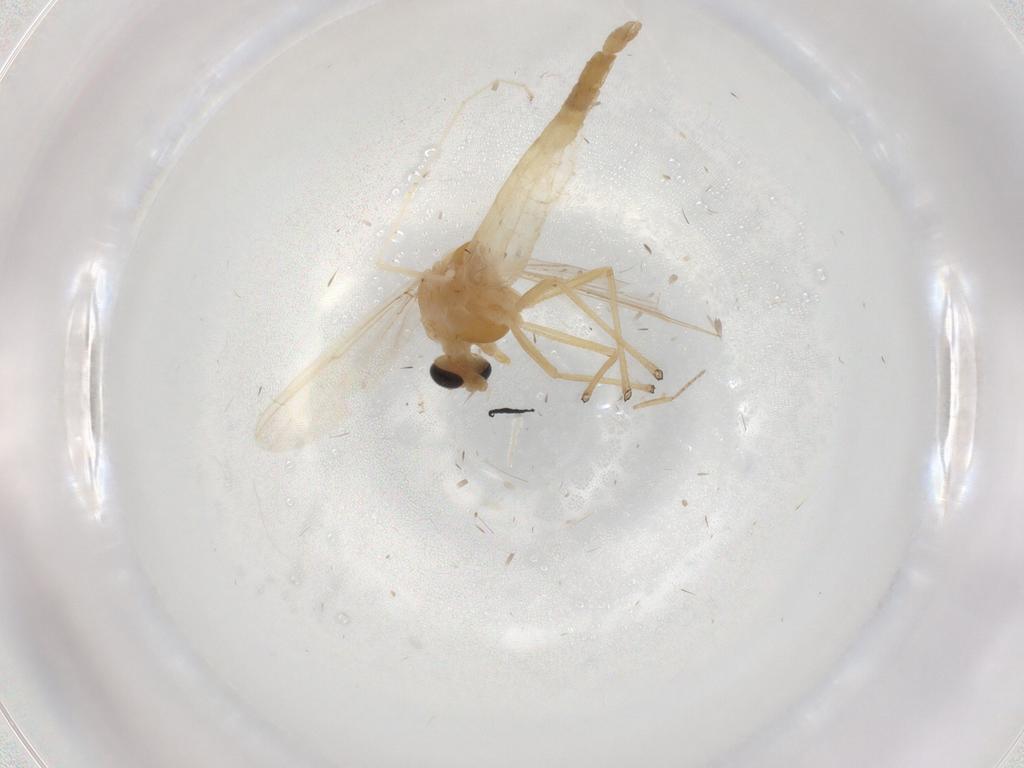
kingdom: Animalia
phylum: Arthropoda
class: Insecta
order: Diptera
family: Chironomidae
